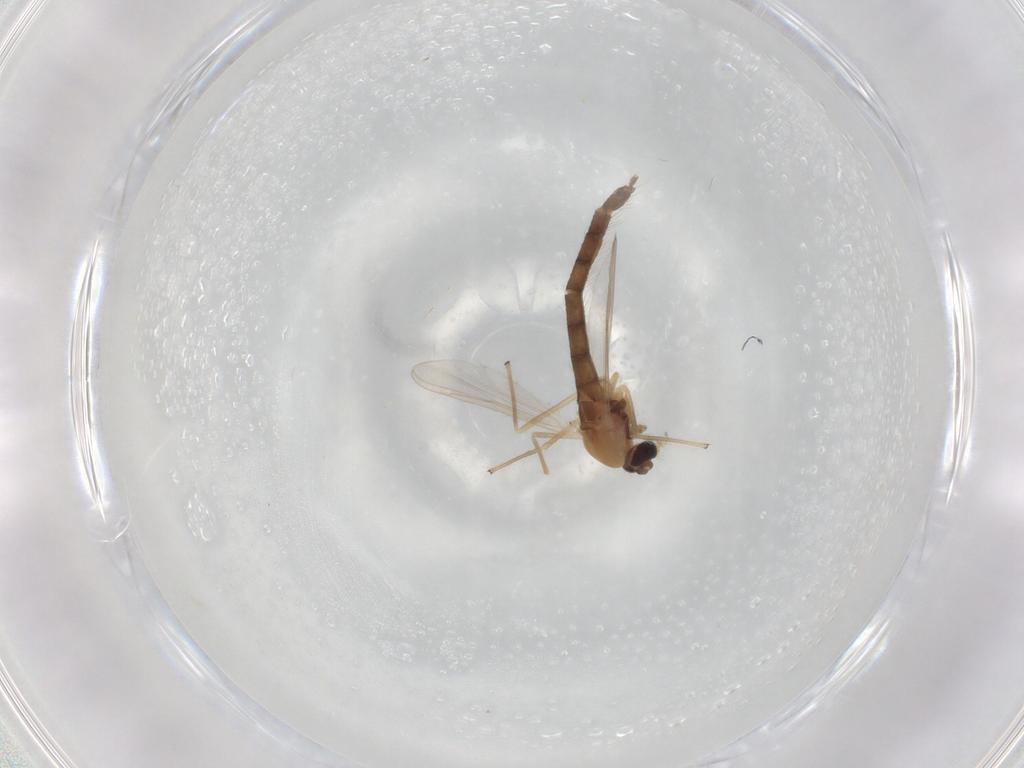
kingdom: Animalia
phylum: Arthropoda
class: Insecta
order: Diptera
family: Chironomidae
